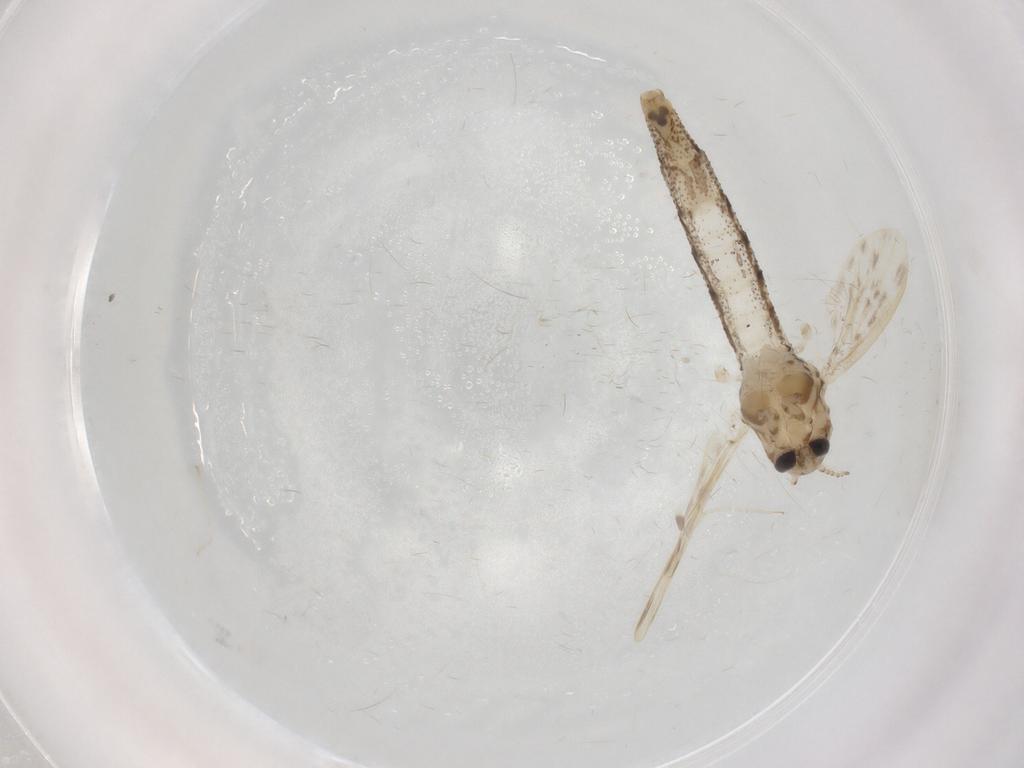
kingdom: Animalia
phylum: Arthropoda
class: Insecta
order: Diptera
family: Chaoboridae
